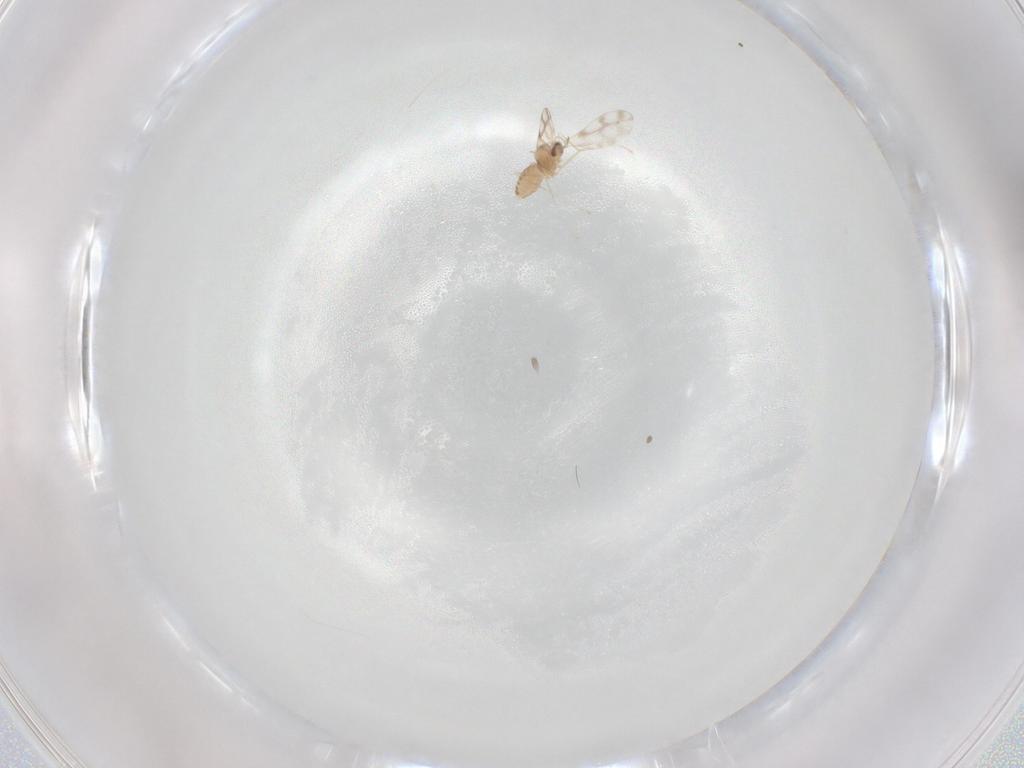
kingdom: Animalia
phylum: Arthropoda
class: Insecta
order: Diptera
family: Cecidomyiidae
